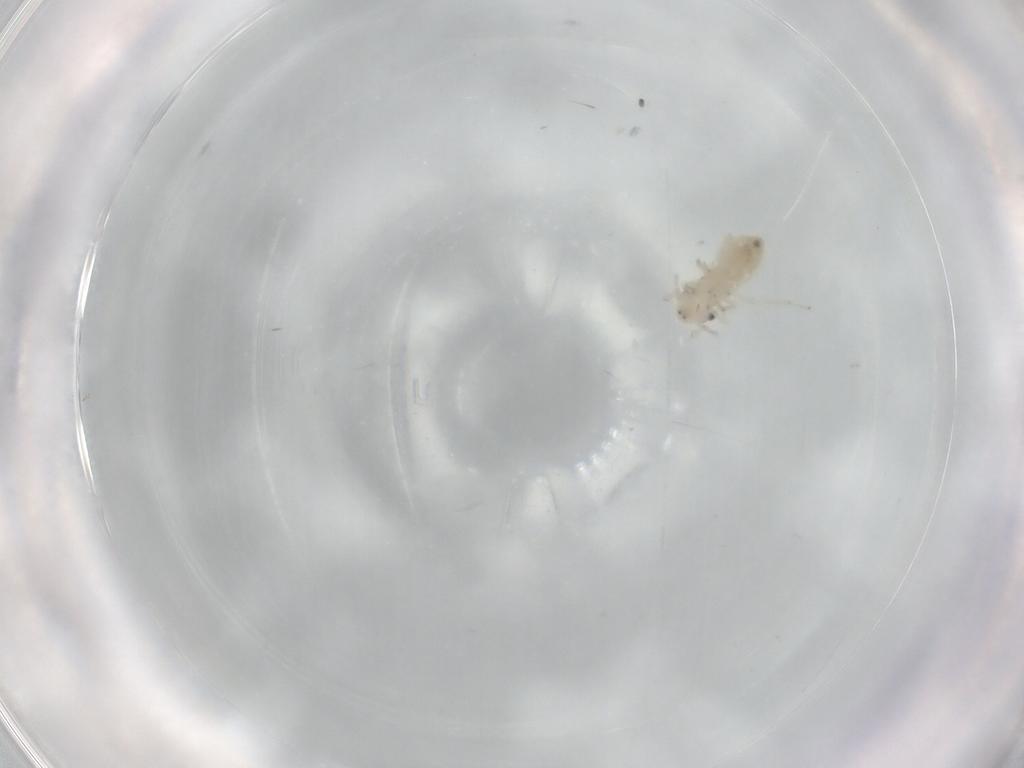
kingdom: Animalia
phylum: Arthropoda
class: Insecta
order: Psocodea
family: Lepidopsocidae
